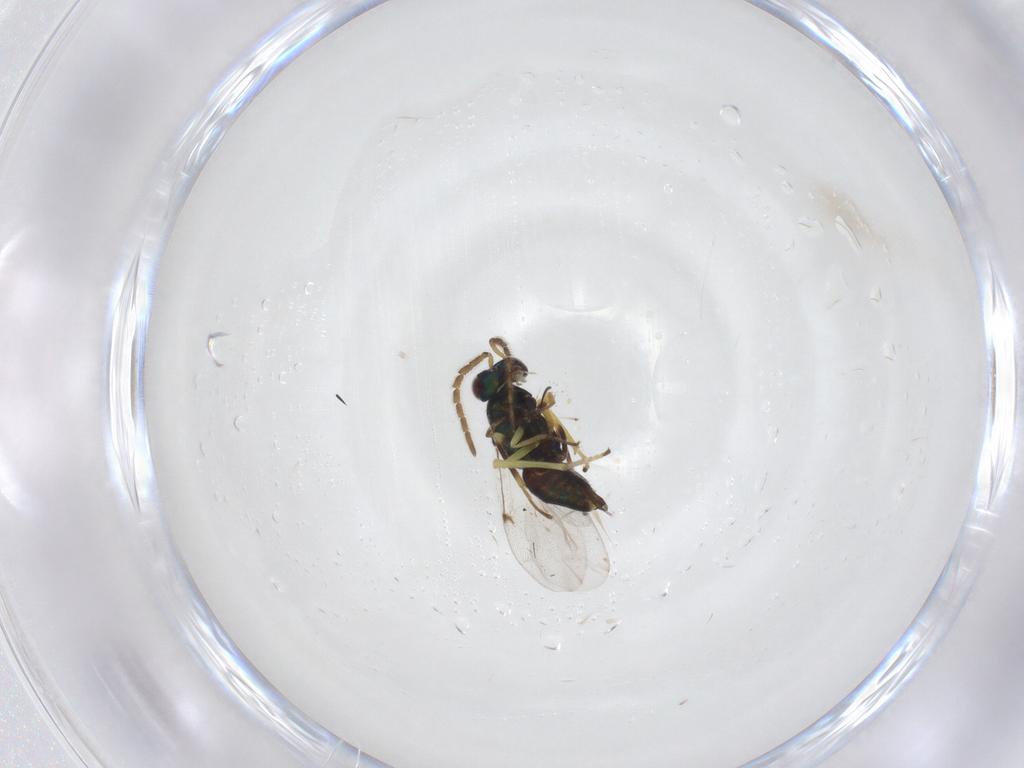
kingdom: Animalia
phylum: Arthropoda
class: Insecta
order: Hymenoptera
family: Encyrtidae
